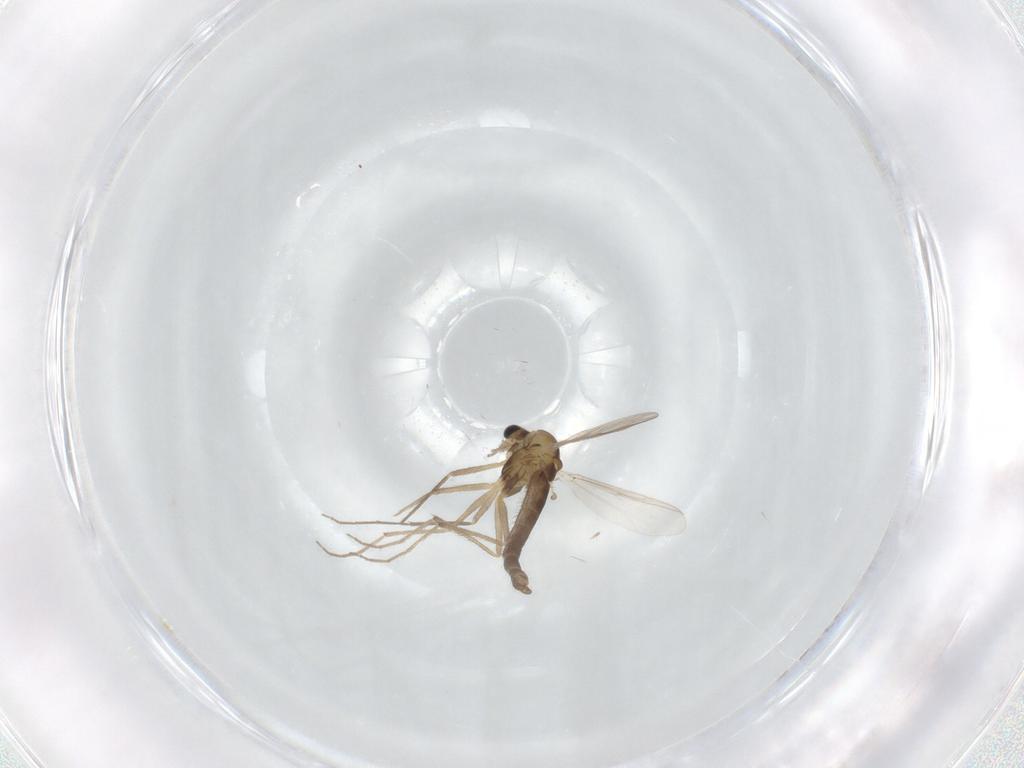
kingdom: Animalia
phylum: Arthropoda
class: Insecta
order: Diptera
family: Chironomidae
